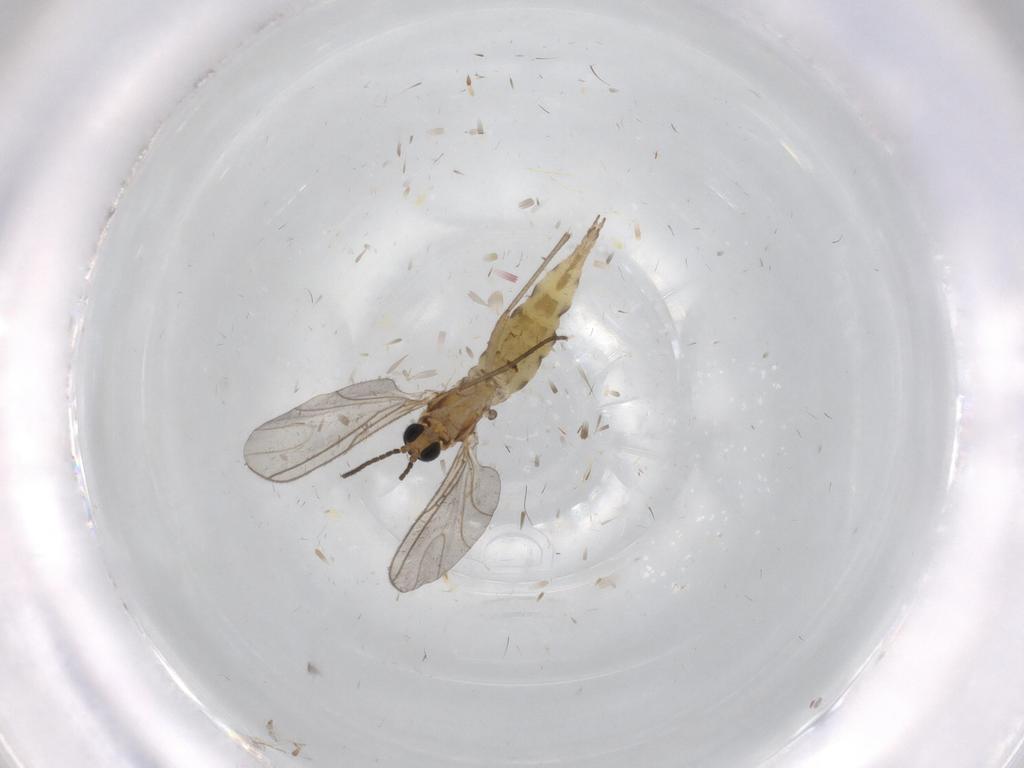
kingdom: Animalia
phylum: Arthropoda
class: Insecta
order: Diptera
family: Sciaridae
